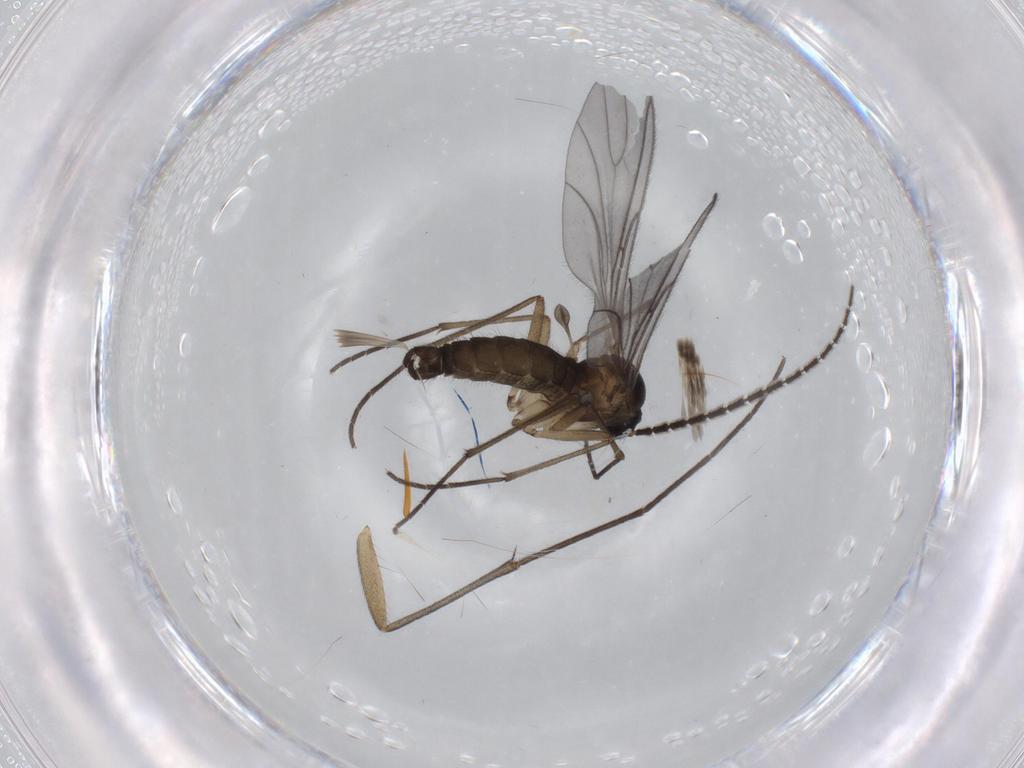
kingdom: Animalia
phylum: Arthropoda
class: Insecta
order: Diptera
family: Mycetophilidae
